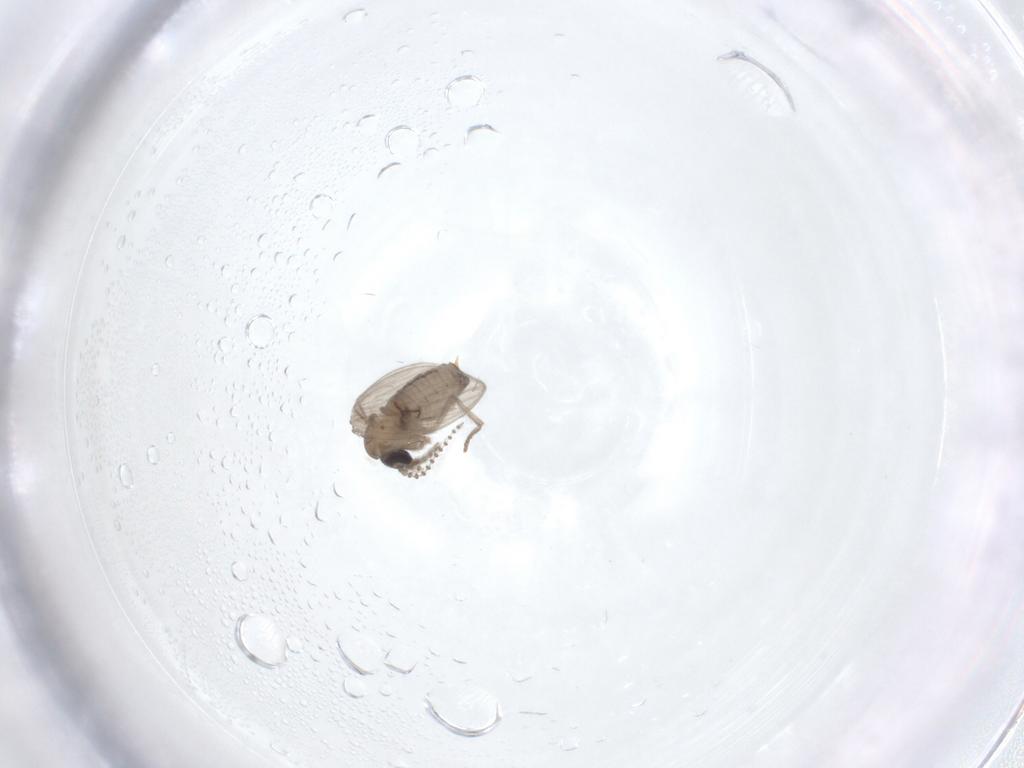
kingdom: Animalia
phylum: Arthropoda
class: Insecta
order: Diptera
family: Psychodidae
